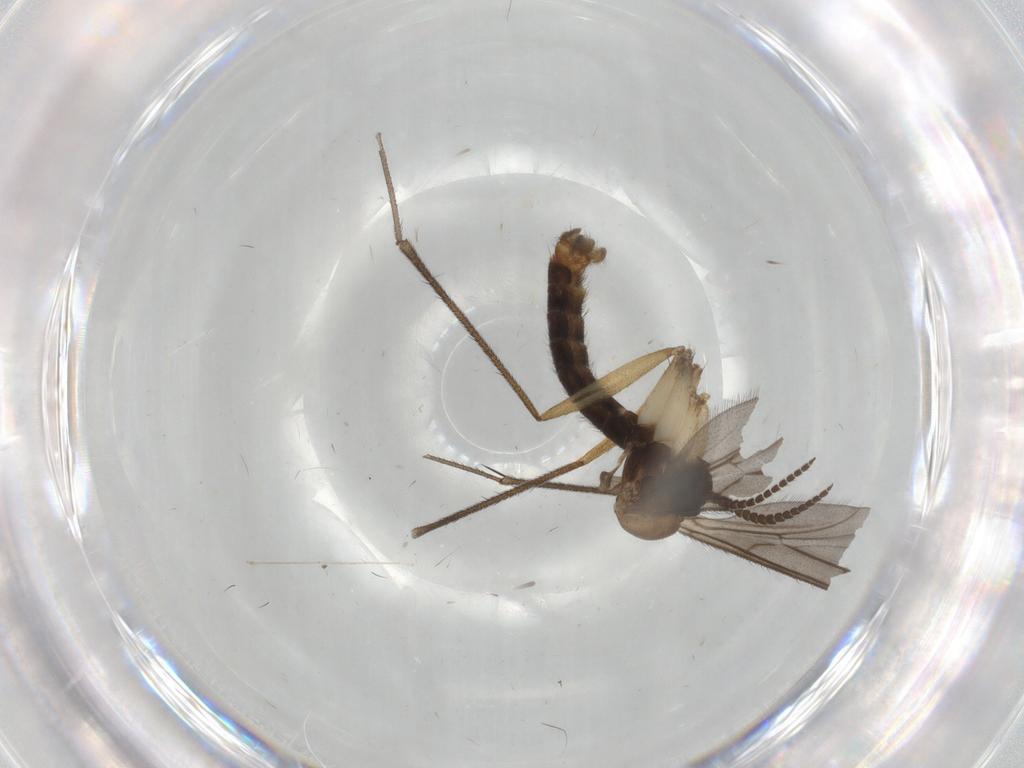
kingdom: Animalia
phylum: Arthropoda
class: Insecta
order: Diptera
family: Mycetophilidae
